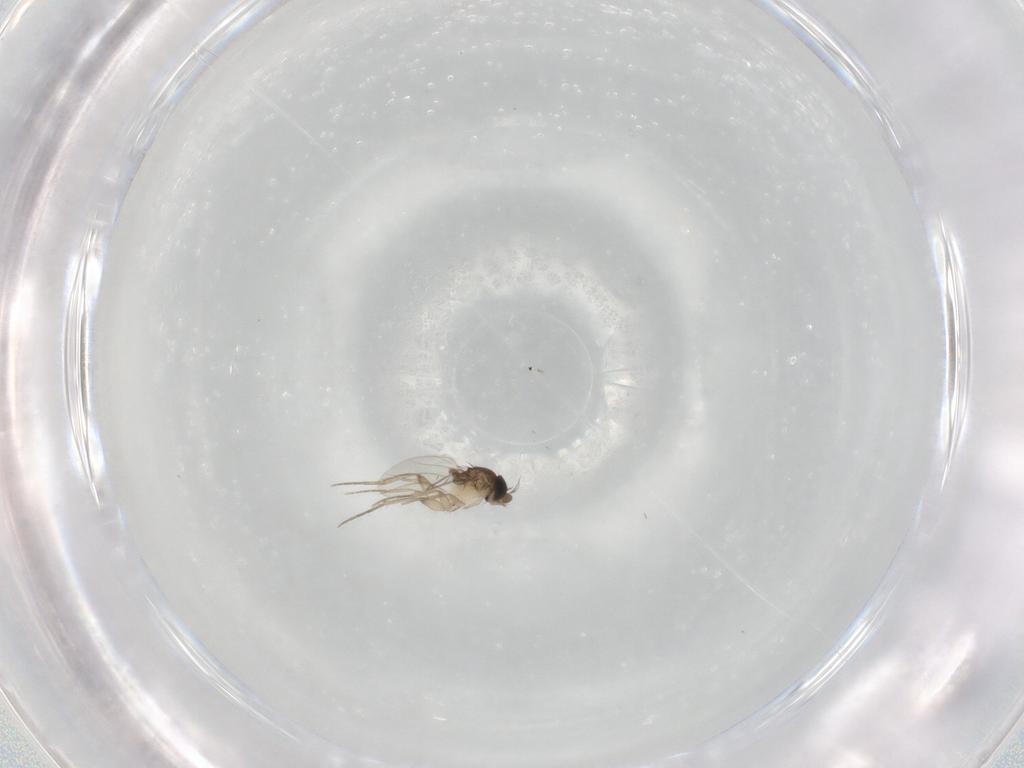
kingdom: Animalia
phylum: Arthropoda
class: Insecta
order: Diptera
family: Phoridae
